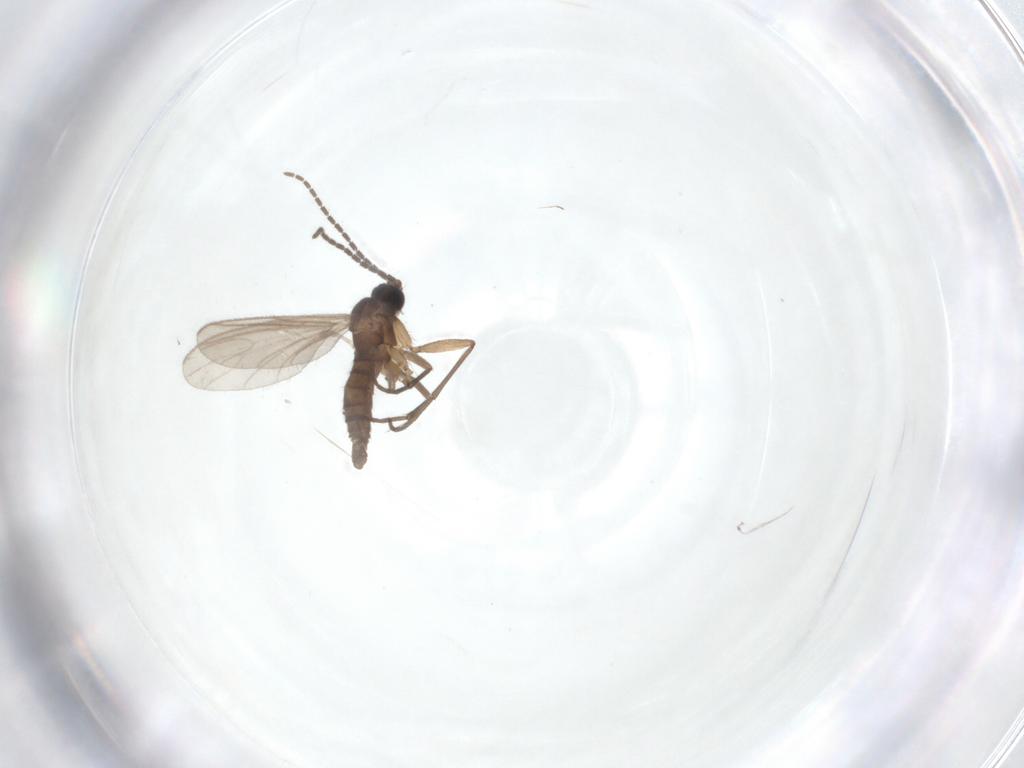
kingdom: Animalia
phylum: Arthropoda
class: Insecta
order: Diptera
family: Chloropidae
